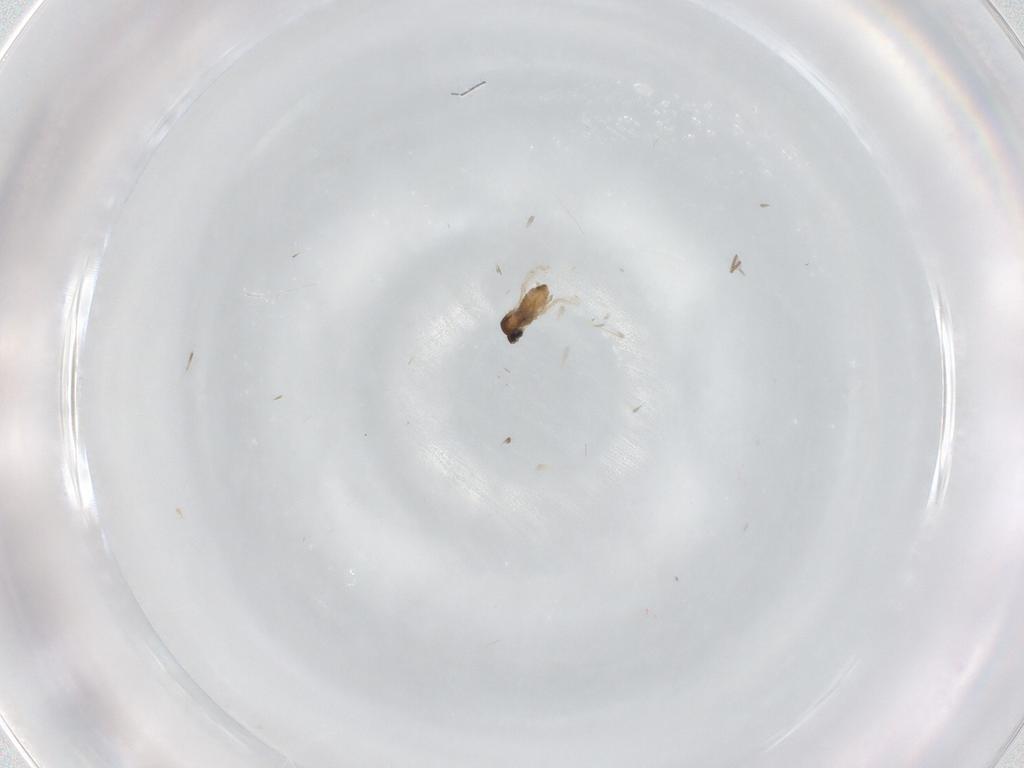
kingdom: Animalia
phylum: Arthropoda
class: Insecta
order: Diptera
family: Cecidomyiidae
